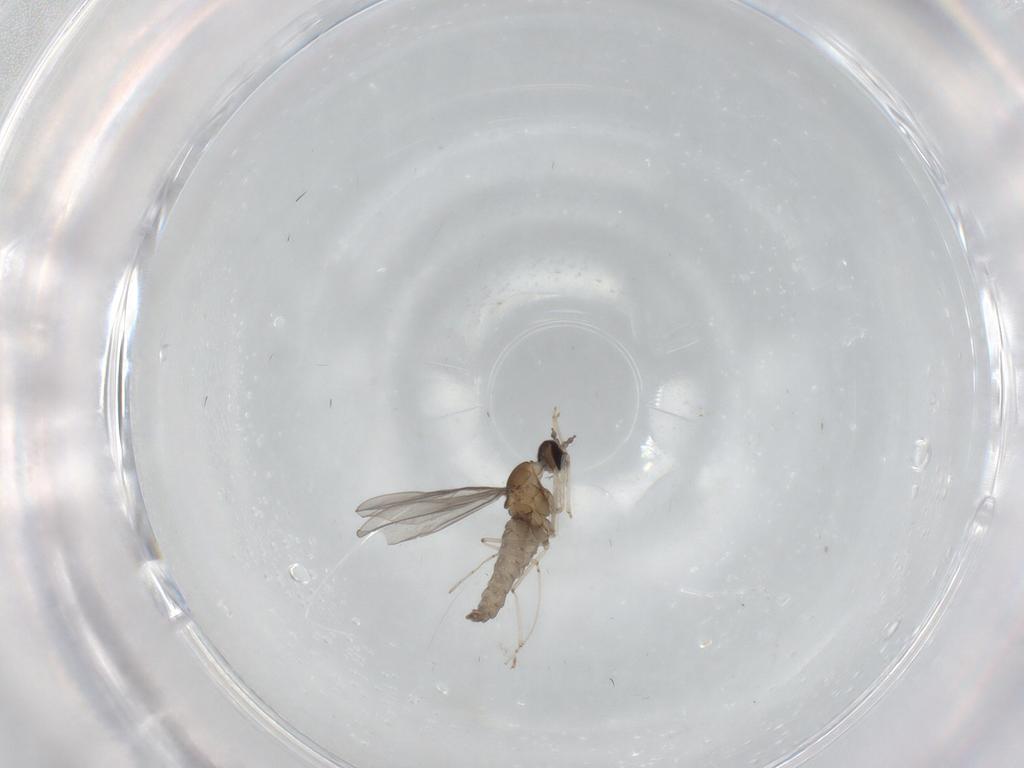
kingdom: Animalia
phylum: Arthropoda
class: Insecta
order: Diptera
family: Cecidomyiidae
